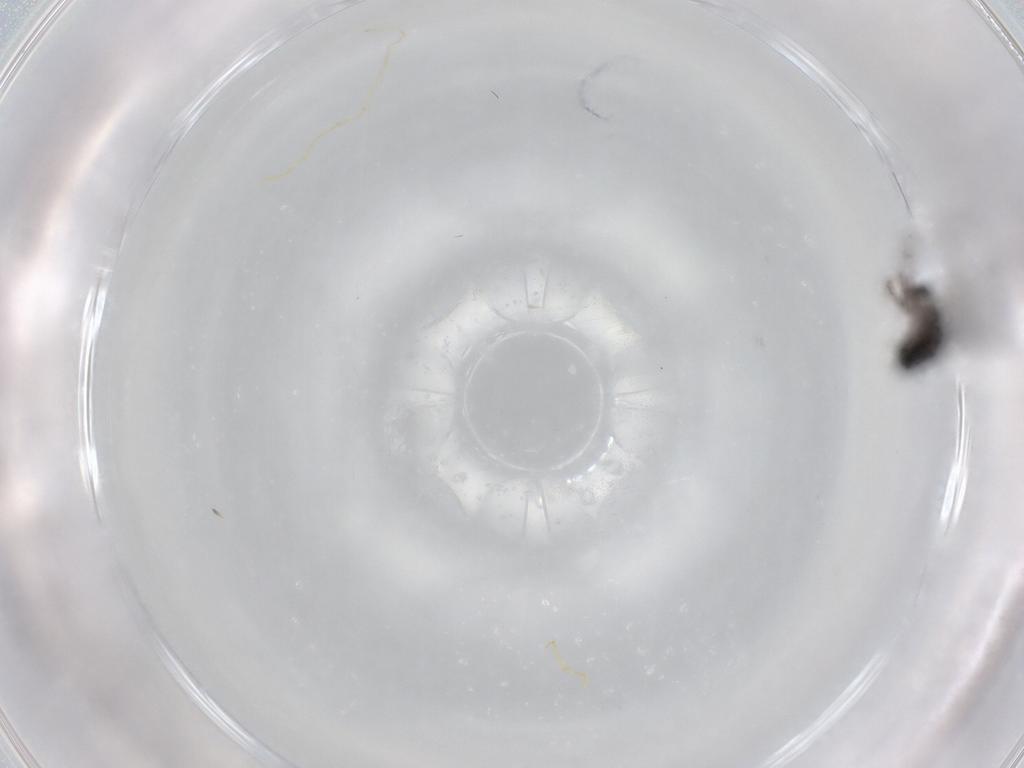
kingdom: Animalia
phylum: Arthropoda
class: Insecta
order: Diptera
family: Sciaridae
